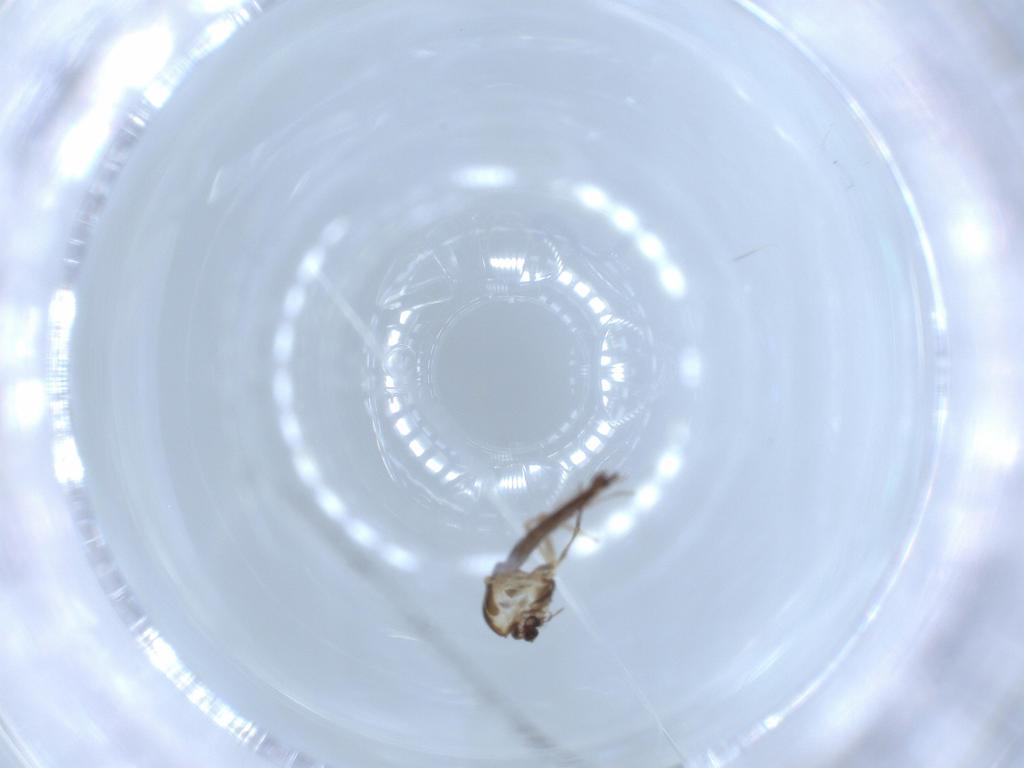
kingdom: Animalia
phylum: Arthropoda
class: Insecta
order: Diptera
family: Chironomidae
